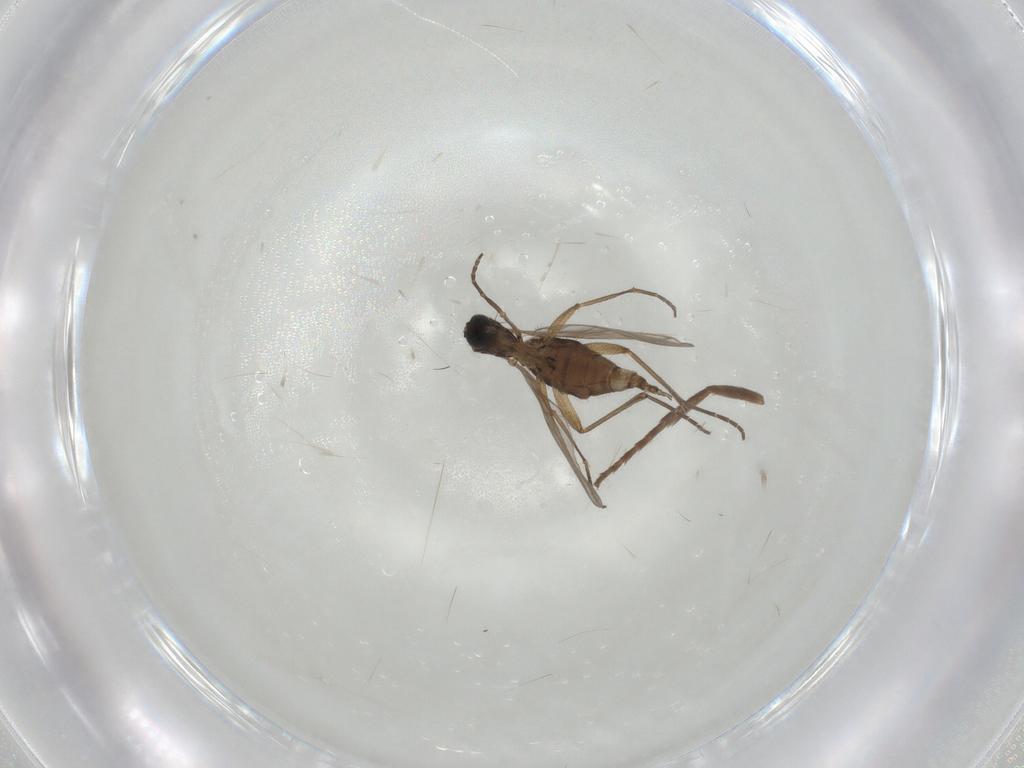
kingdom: Animalia
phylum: Arthropoda
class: Insecta
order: Lepidoptera
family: Limacodidae
